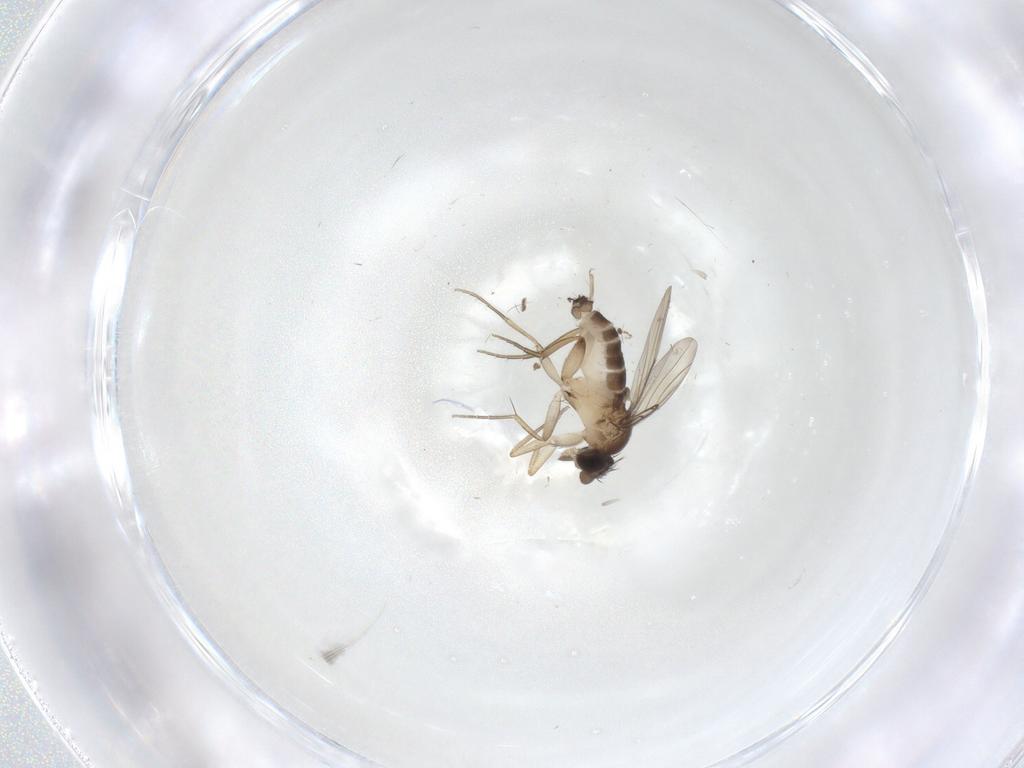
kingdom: Animalia
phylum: Arthropoda
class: Insecta
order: Diptera
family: Phoridae
